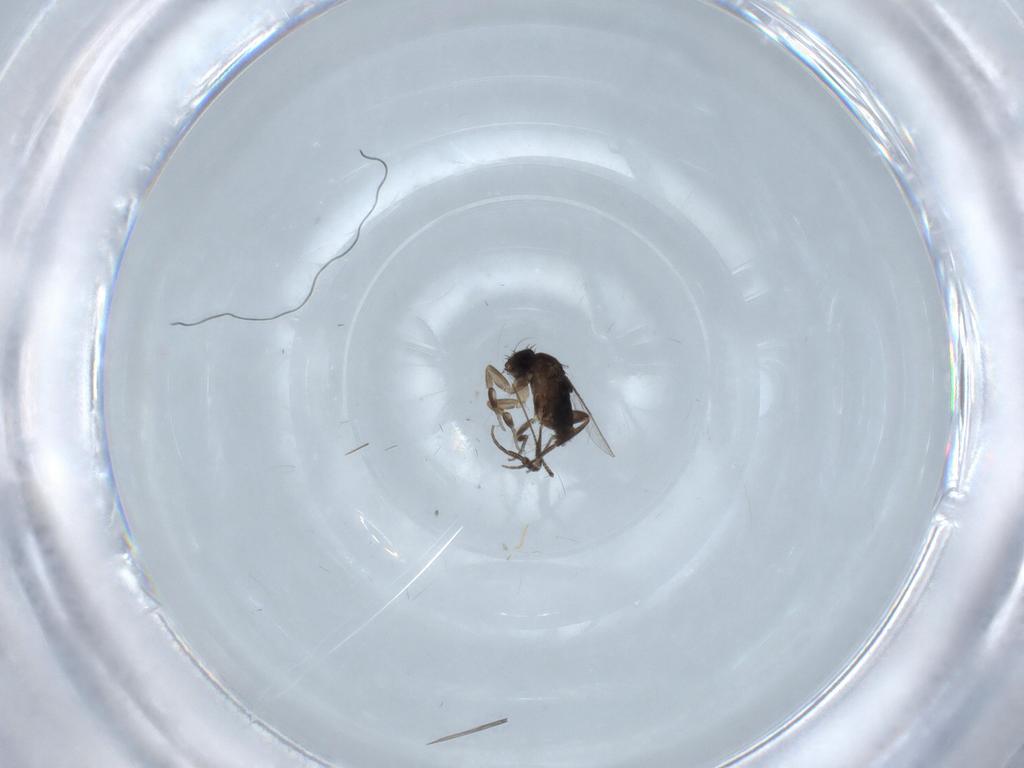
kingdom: Animalia
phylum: Arthropoda
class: Insecta
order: Diptera
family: Phoridae
